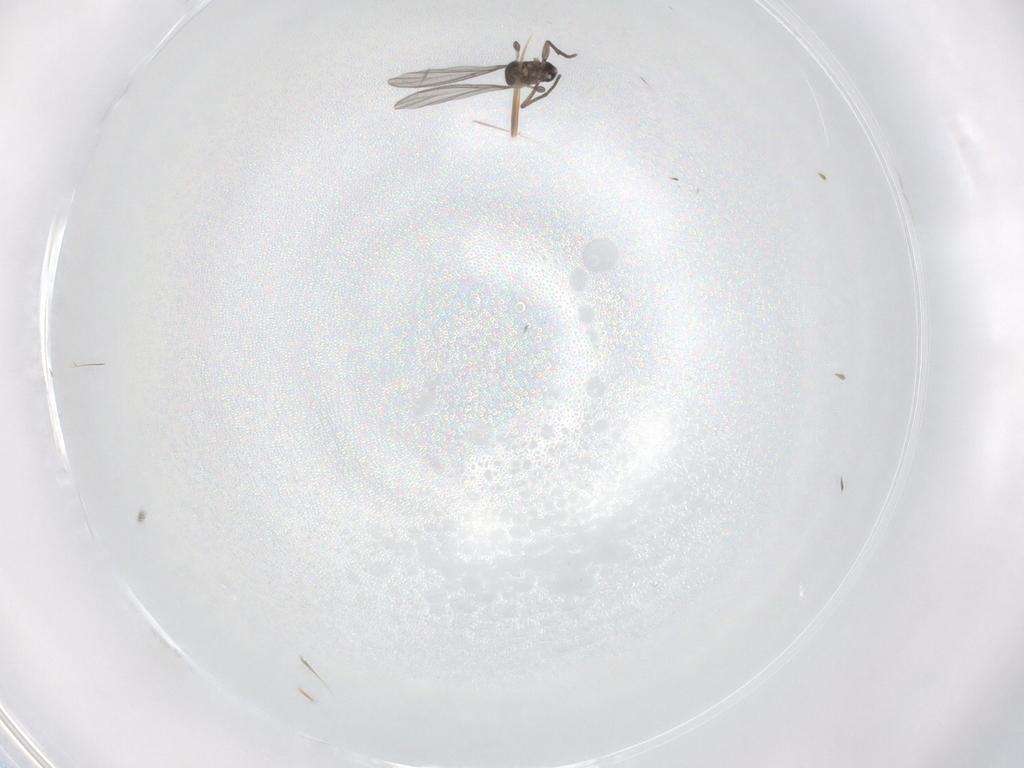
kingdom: Animalia
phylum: Arthropoda
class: Insecta
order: Diptera
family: Sciaridae
